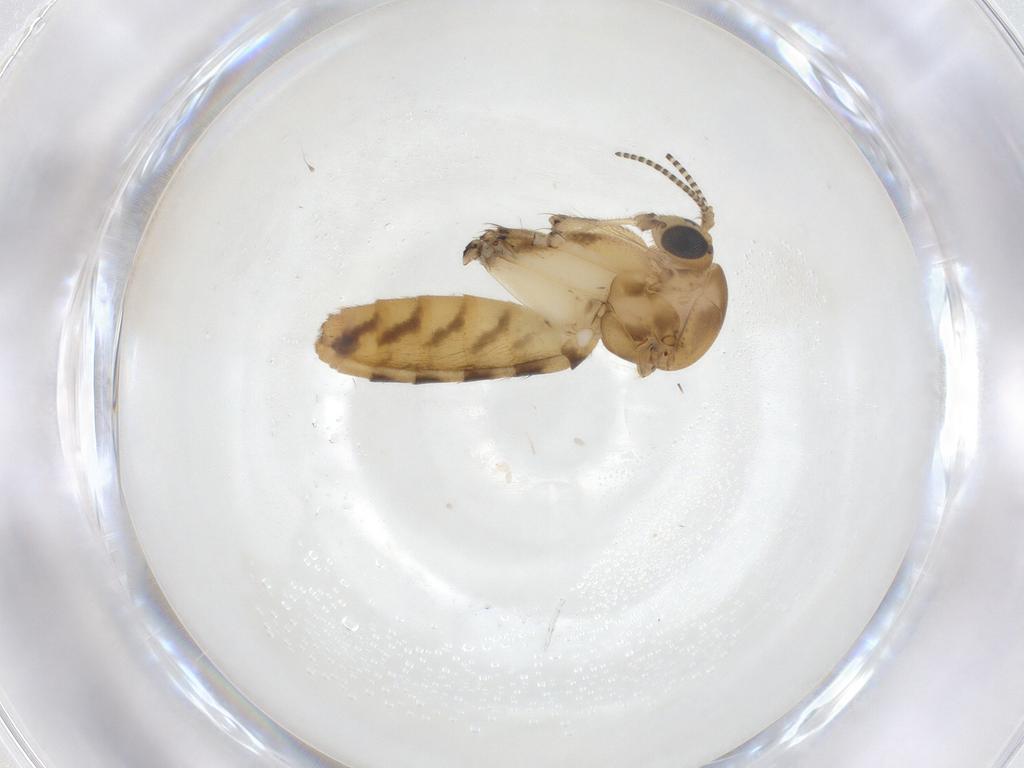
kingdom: Animalia
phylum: Arthropoda
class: Insecta
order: Diptera
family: Mycetophilidae
